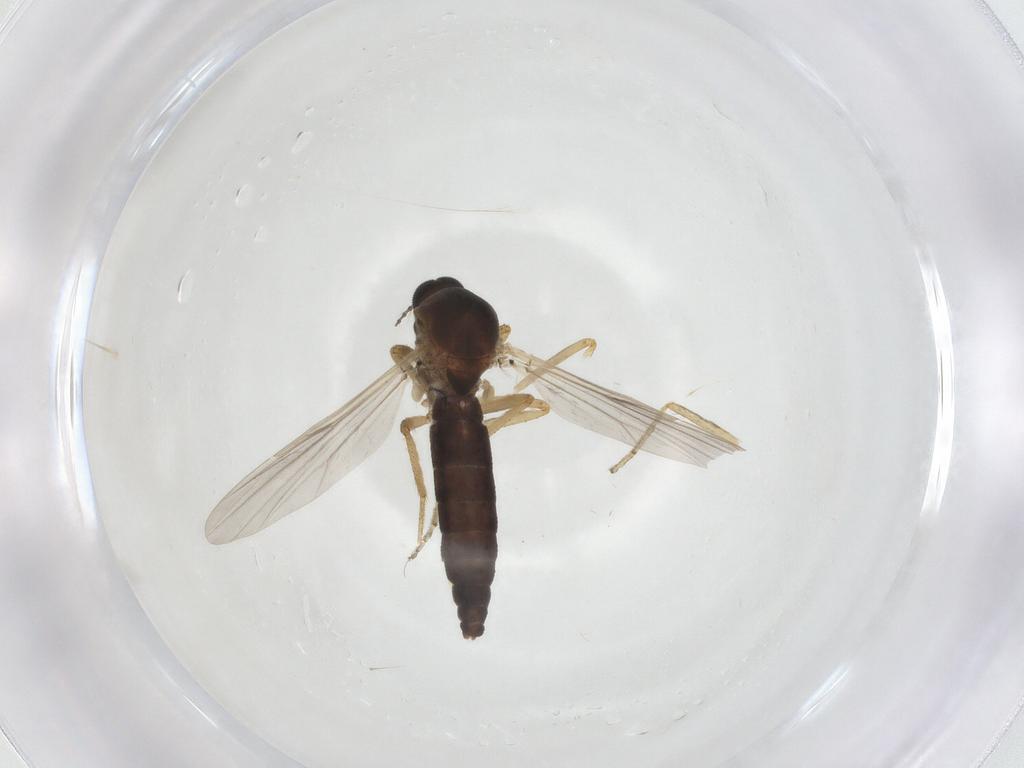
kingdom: Animalia
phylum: Arthropoda
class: Insecta
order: Diptera
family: Ceratopogonidae
